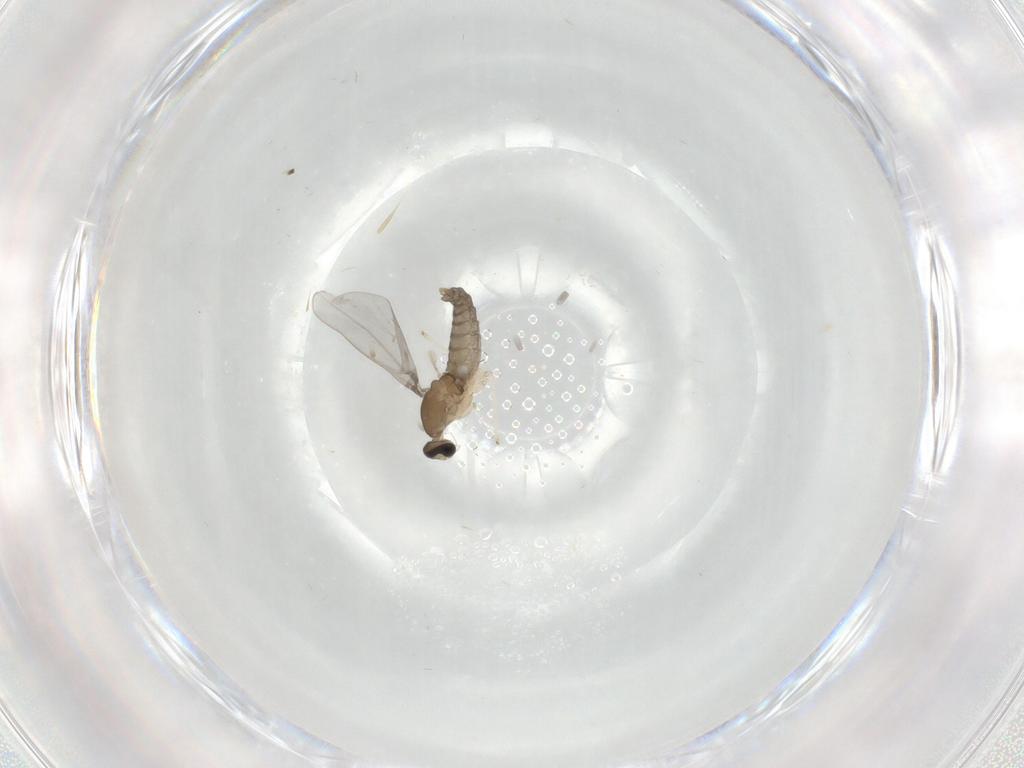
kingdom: Animalia
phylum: Arthropoda
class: Insecta
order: Diptera
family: Cecidomyiidae
